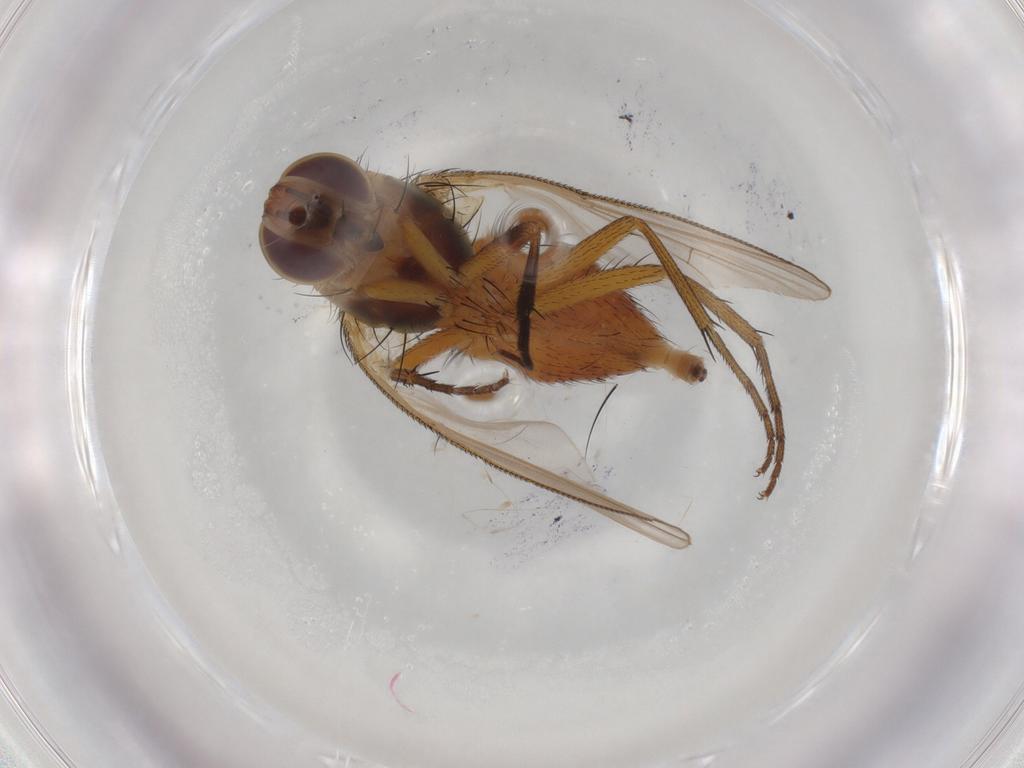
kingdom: Animalia
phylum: Arthropoda
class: Insecta
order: Diptera
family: Muscidae
